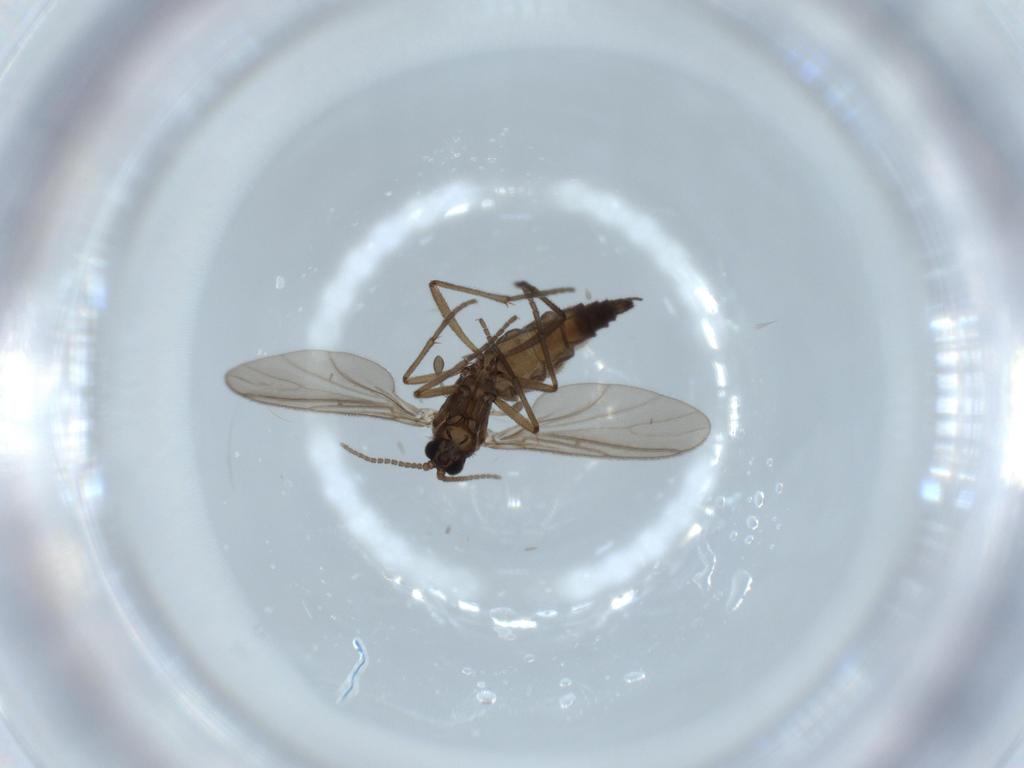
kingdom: Animalia
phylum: Arthropoda
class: Insecta
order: Diptera
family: Sciaridae
